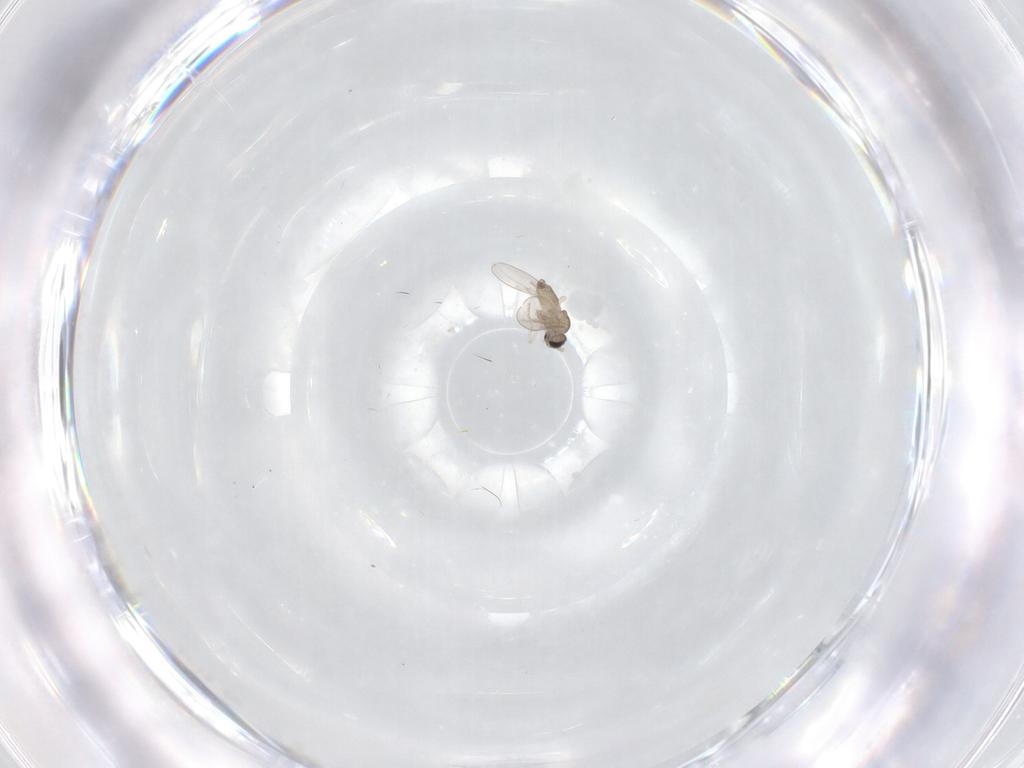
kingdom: Animalia
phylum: Arthropoda
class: Insecta
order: Diptera
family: Cecidomyiidae
